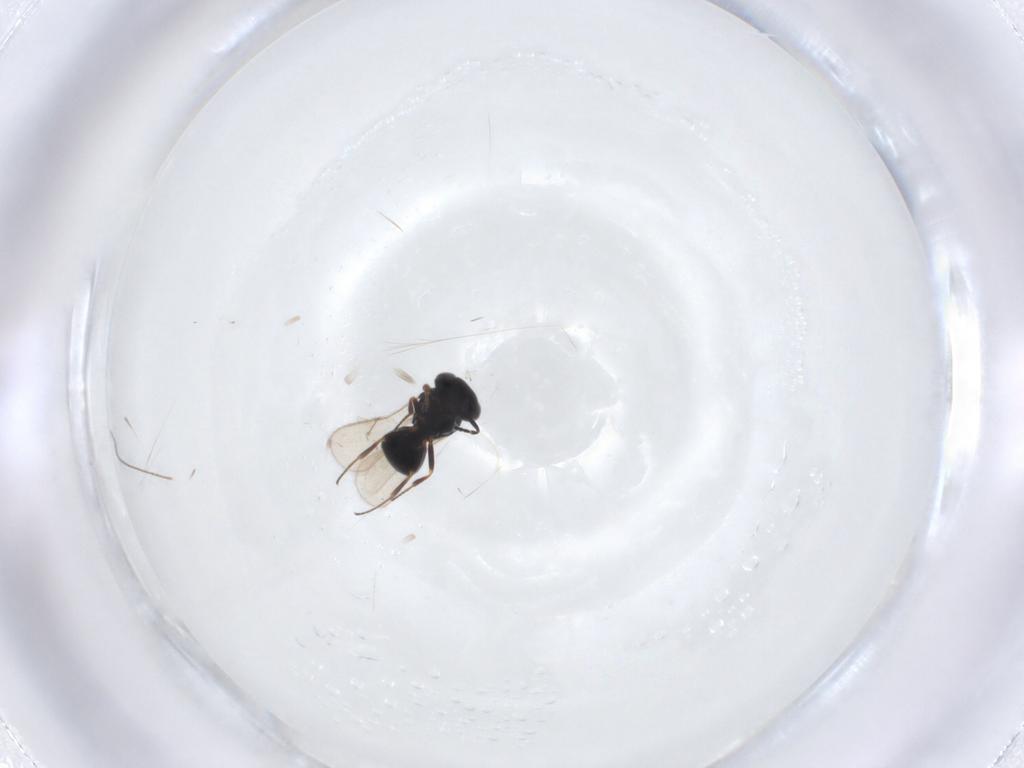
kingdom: Animalia
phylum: Arthropoda
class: Insecta
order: Hymenoptera
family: Scelionidae
